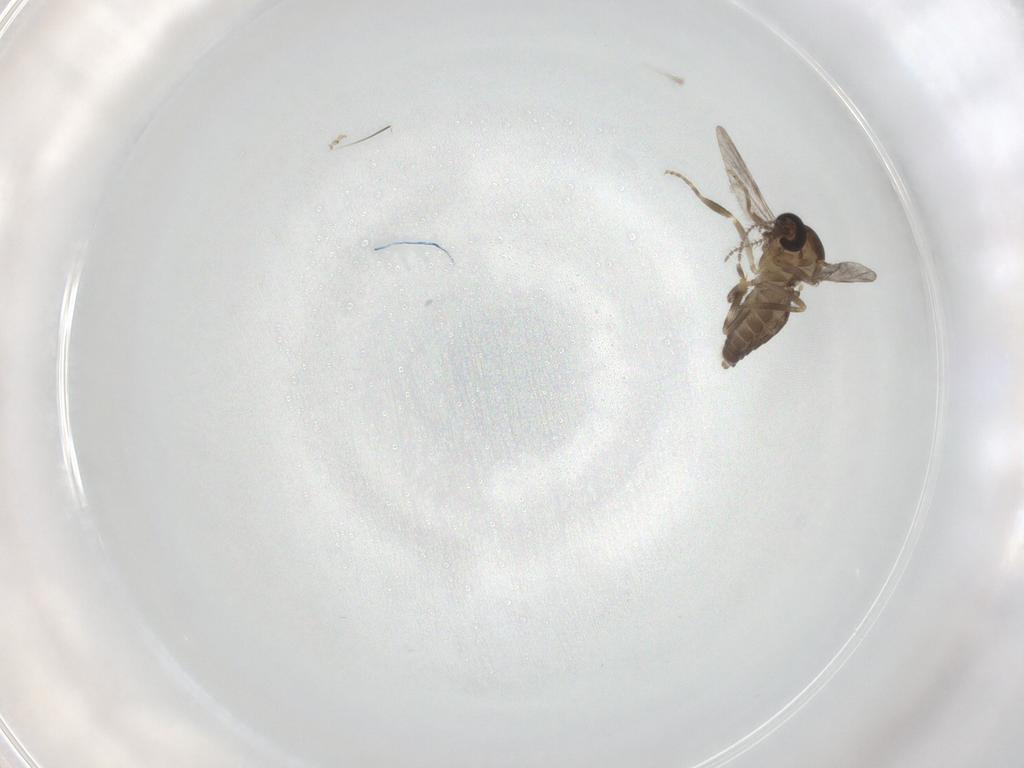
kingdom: Animalia
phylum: Arthropoda
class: Insecta
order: Diptera
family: Ceratopogonidae
